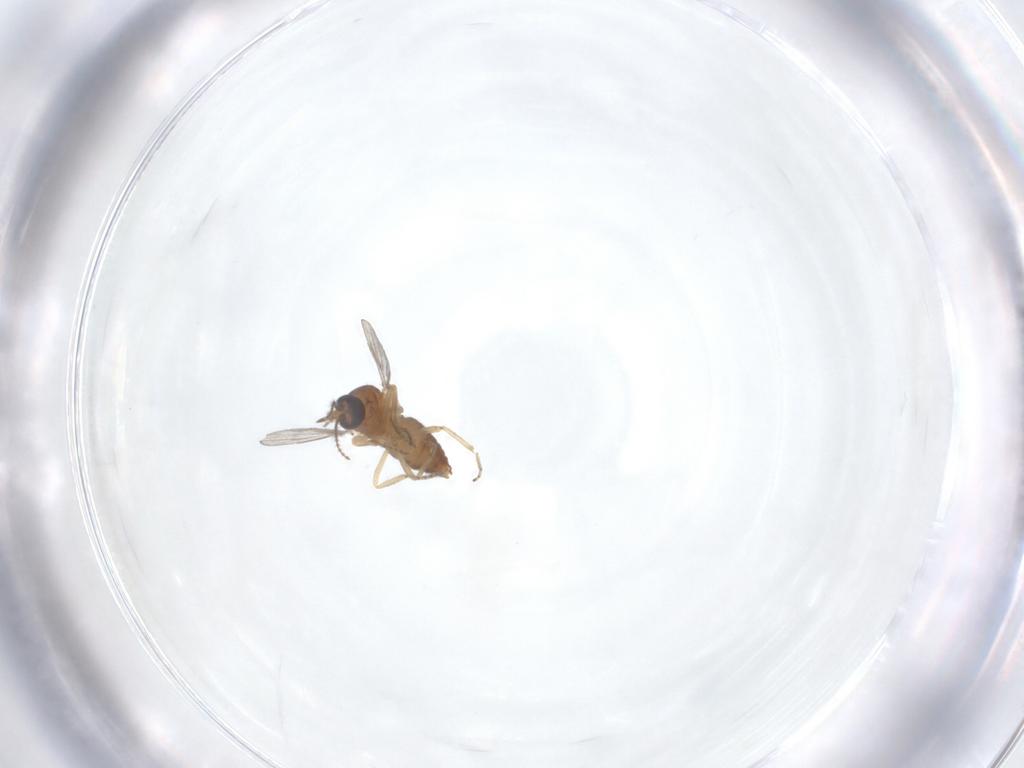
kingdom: Animalia
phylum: Arthropoda
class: Insecta
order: Diptera
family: Ceratopogonidae
